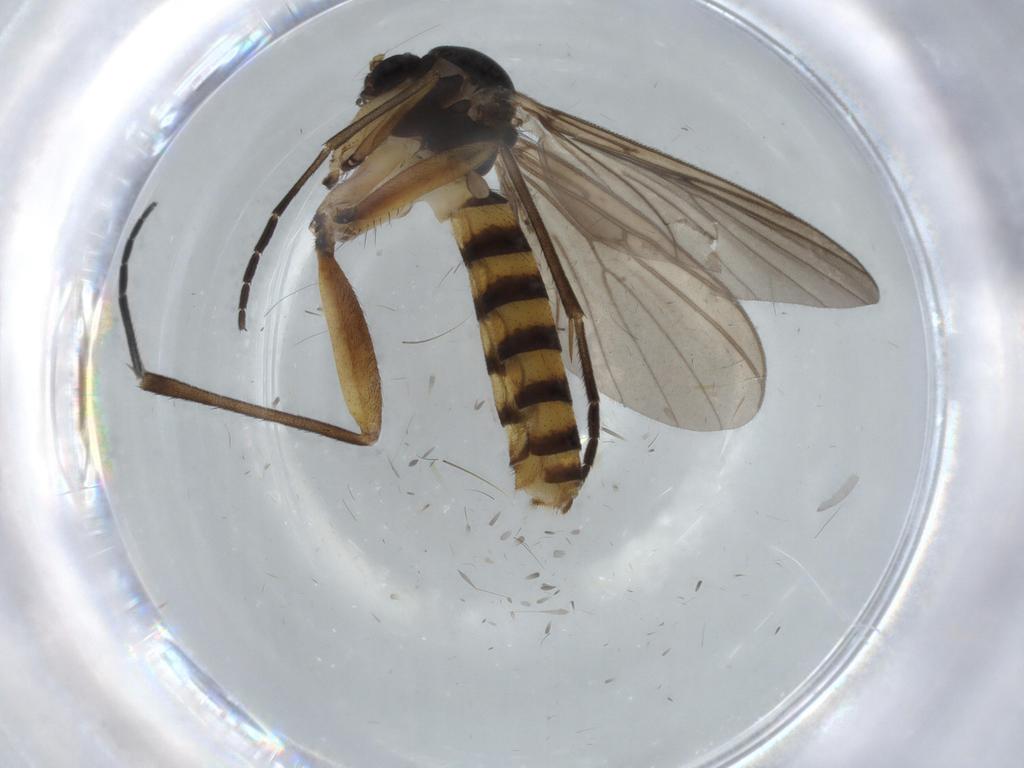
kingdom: Animalia
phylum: Arthropoda
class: Insecta
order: Diptera
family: Mycetophilidae
